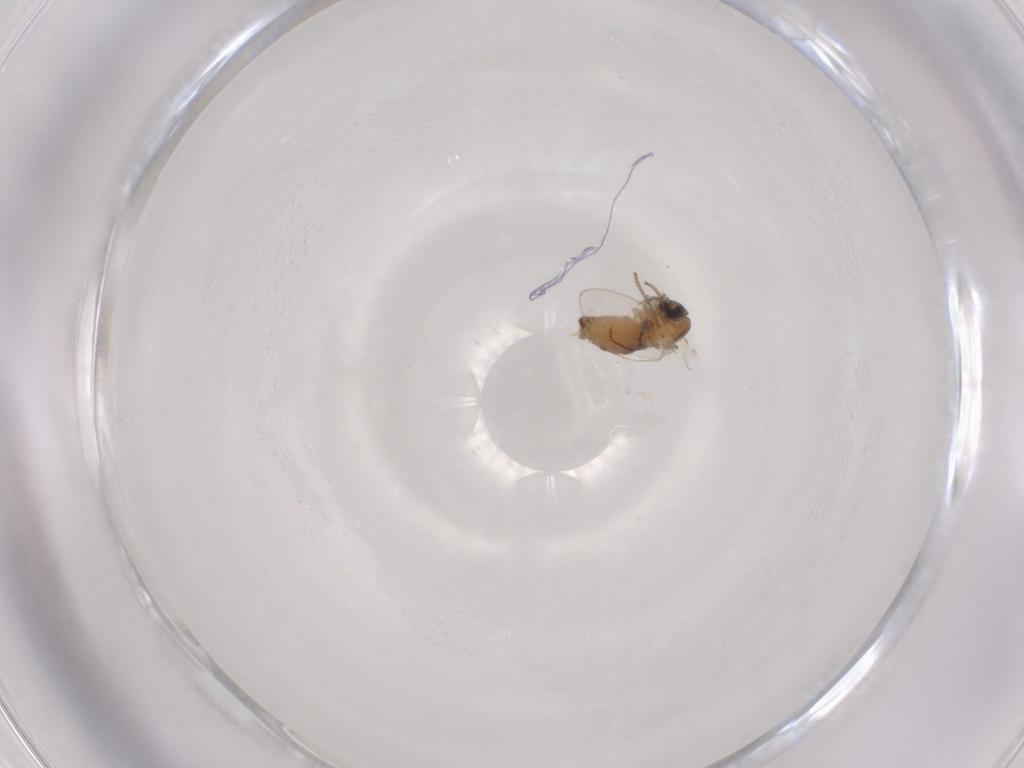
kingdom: Animalia
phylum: Arthropoda
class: Insecta
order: Diptera
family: Psychodidae
